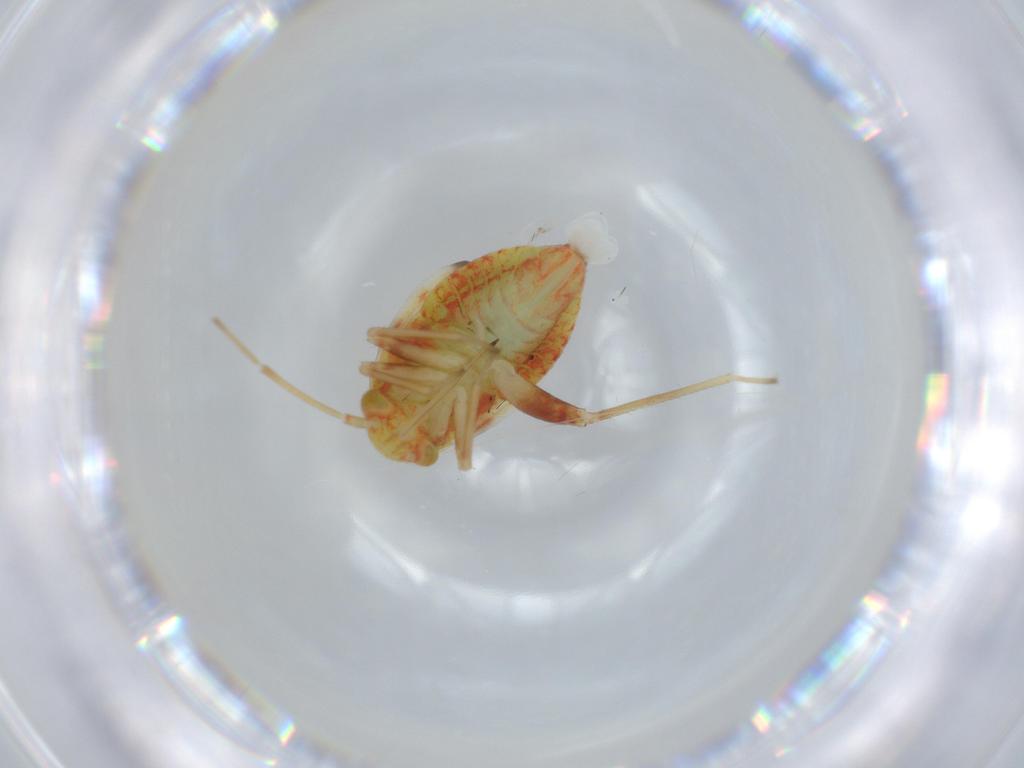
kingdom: Animalia
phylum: Arthropoda
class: Insecta
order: Hemiptera
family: Miridae
